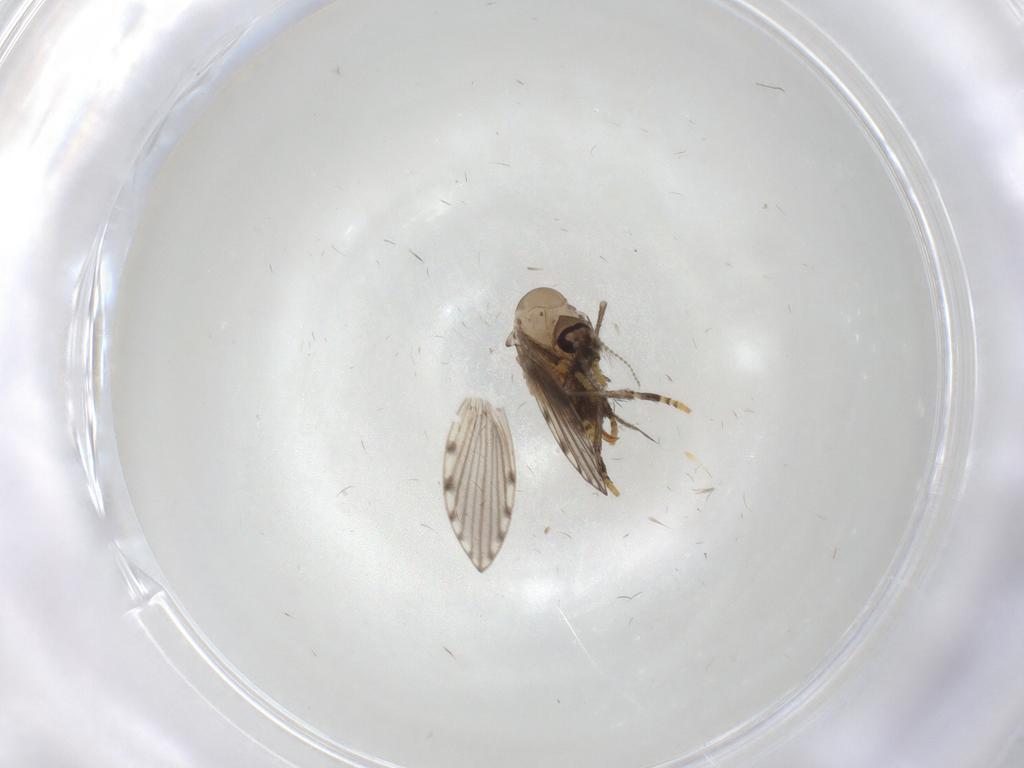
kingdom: Animalia
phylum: Arthropoda
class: Insecta
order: Diptera
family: Psychodidae
